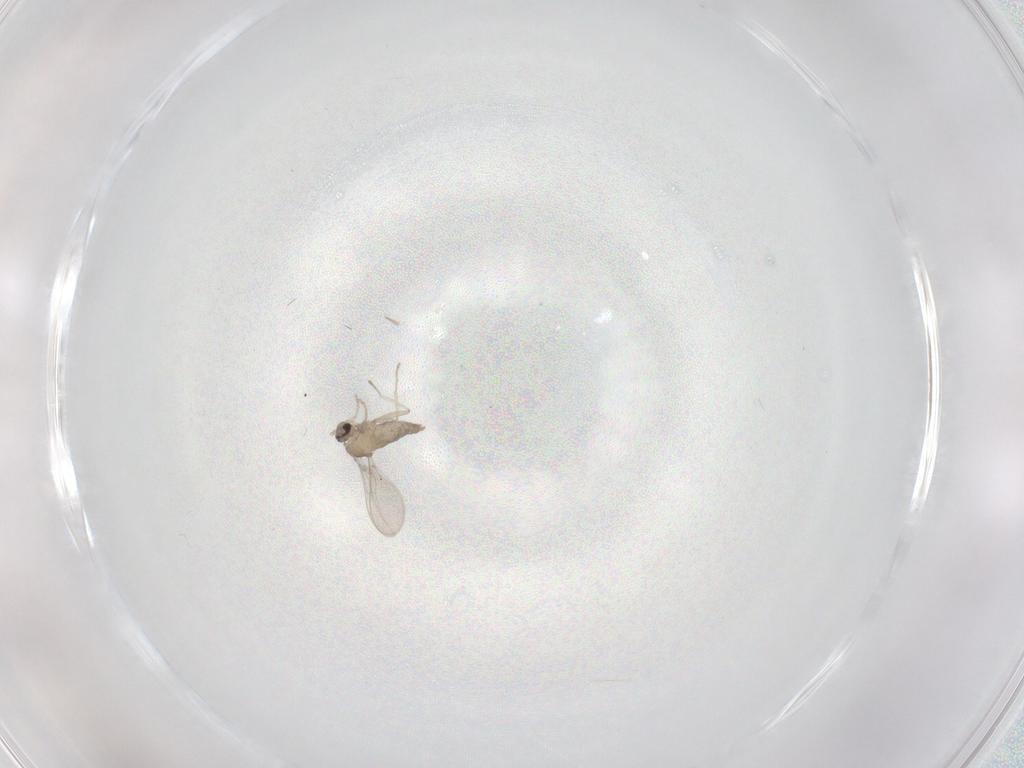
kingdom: Animalia
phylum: Arthropoda
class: Insecta
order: Diptera
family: Cecidomyiidae
